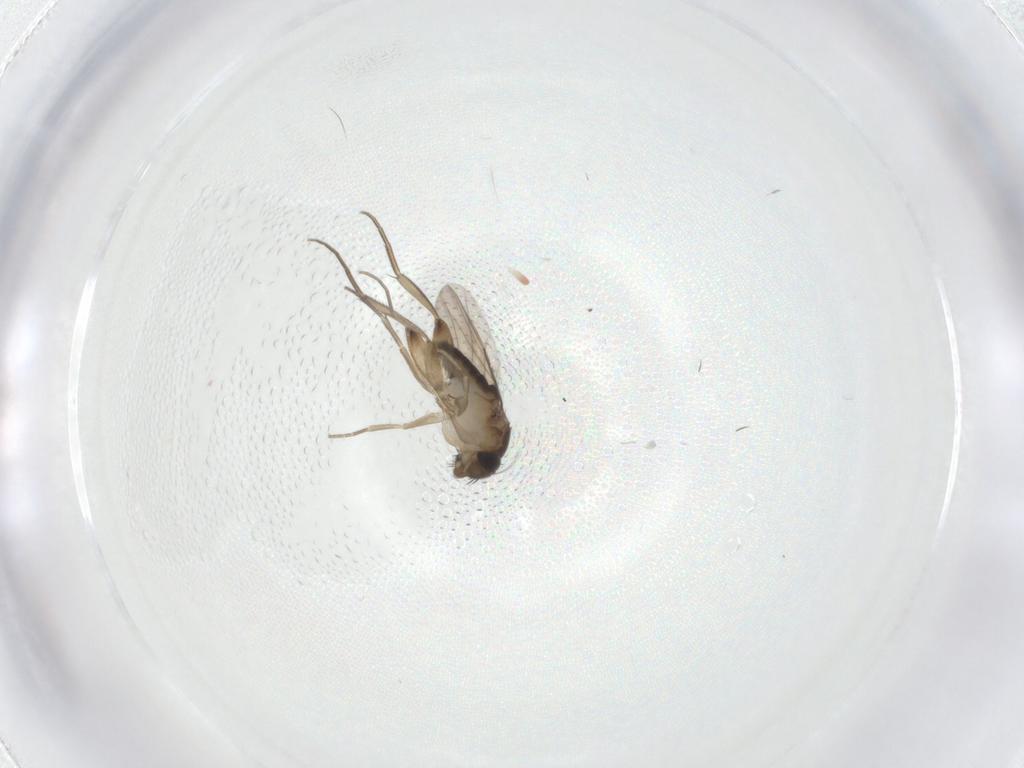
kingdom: Animalia
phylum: Arthropoda
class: Insecta
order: Diptera
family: Phoridae
